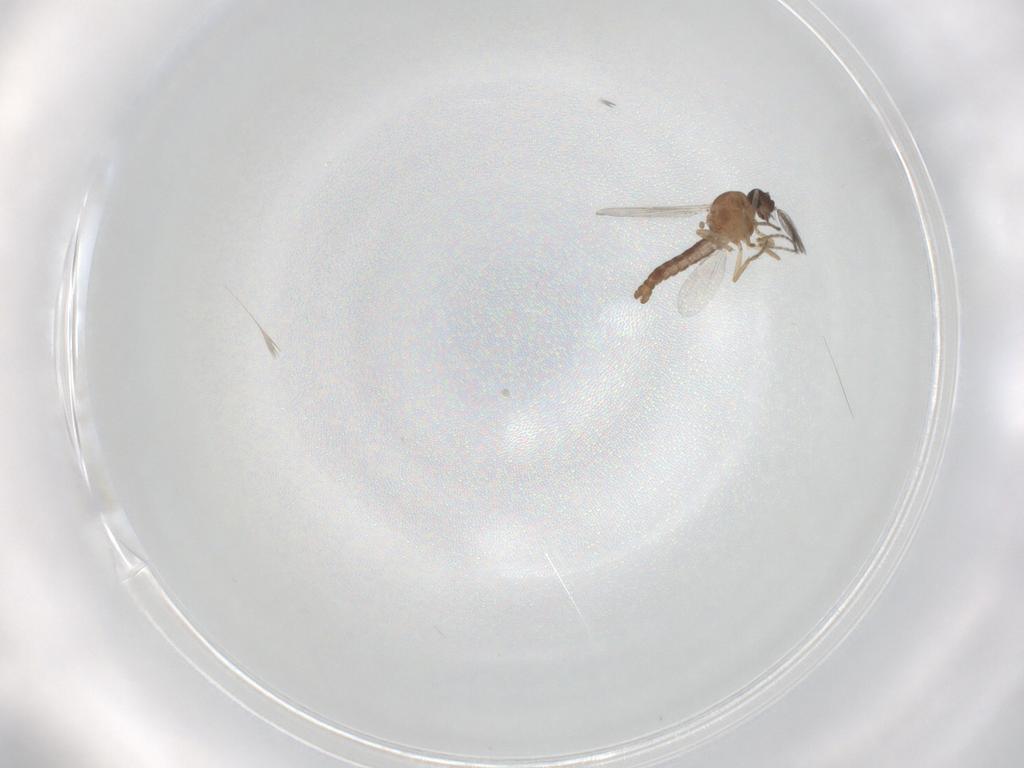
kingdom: Animalia
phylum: Arthropoda
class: Insecta
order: Diptera
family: Ceratopogonidae
